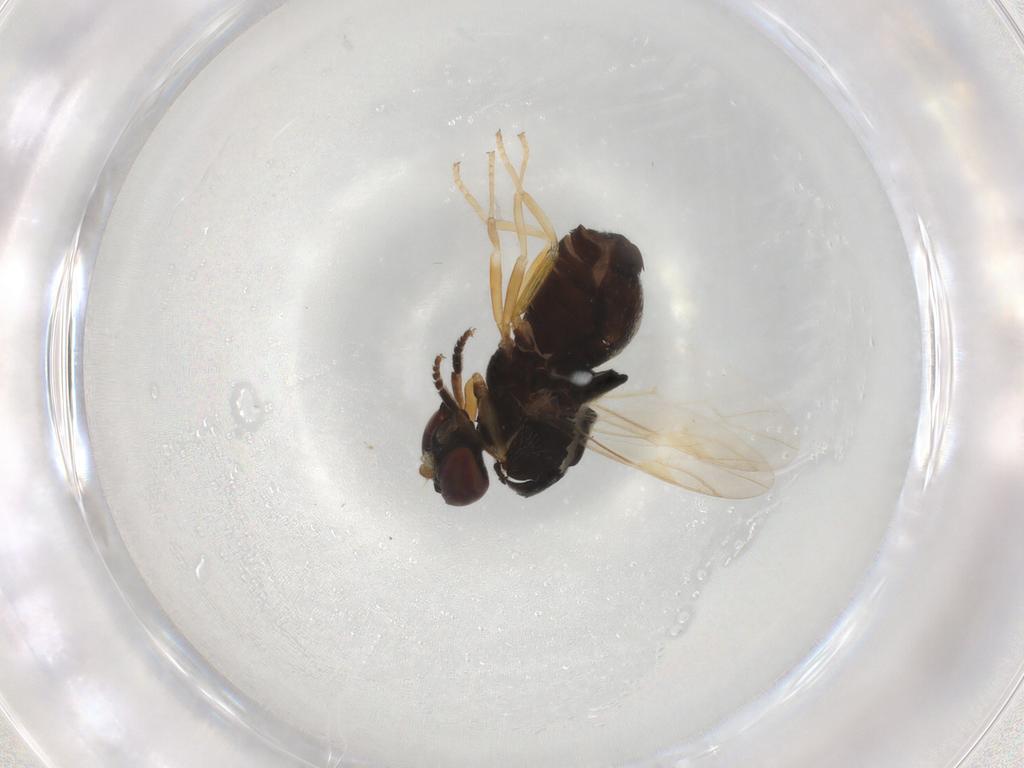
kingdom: Animalia
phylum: Arthropoda
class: Insecta
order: Diptera
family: Stratiomyidae
